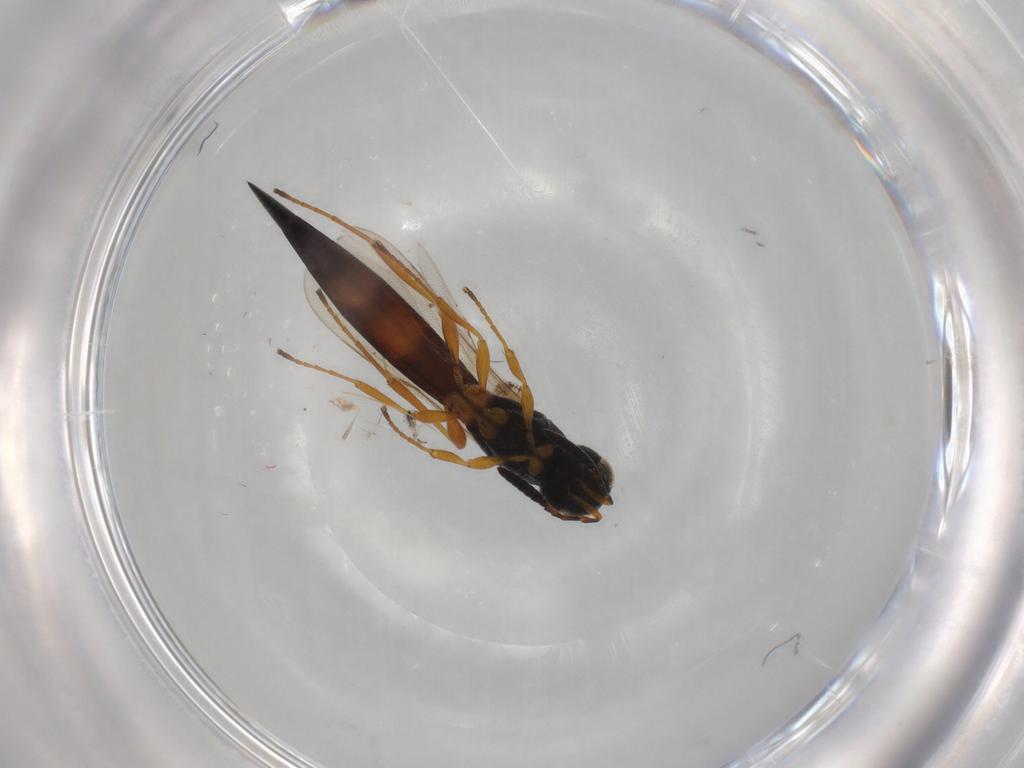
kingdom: Animalia
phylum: Arthropoda
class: Insecta
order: Hymenoptera
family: Scelionidae
